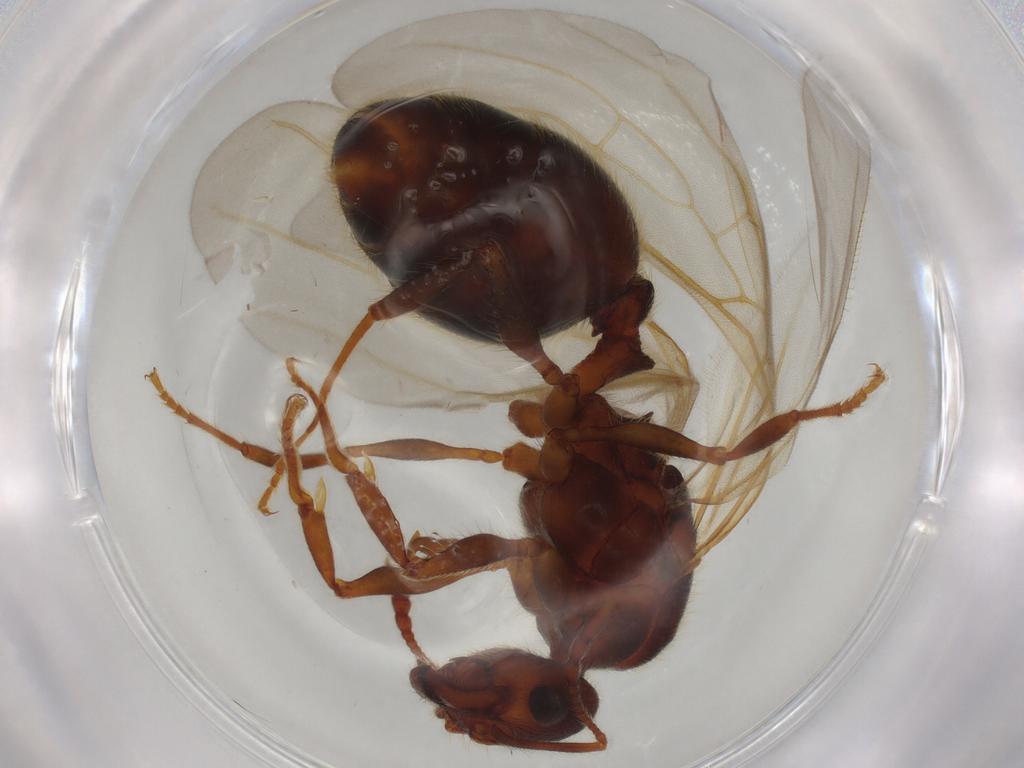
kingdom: Animalia
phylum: Arthropoda
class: Insecta
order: Hymenoptera
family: Formicidae
